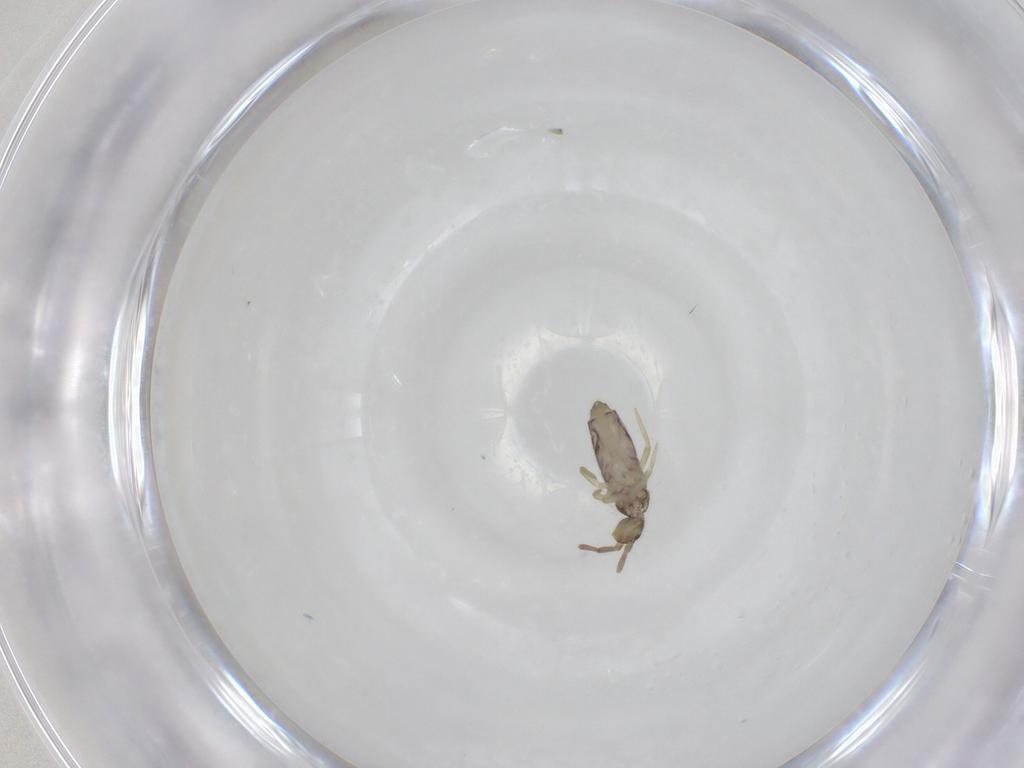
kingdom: Animalia
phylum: Arthropoda
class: Collembola
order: Entomobryomorpha
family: Entomobryidae
